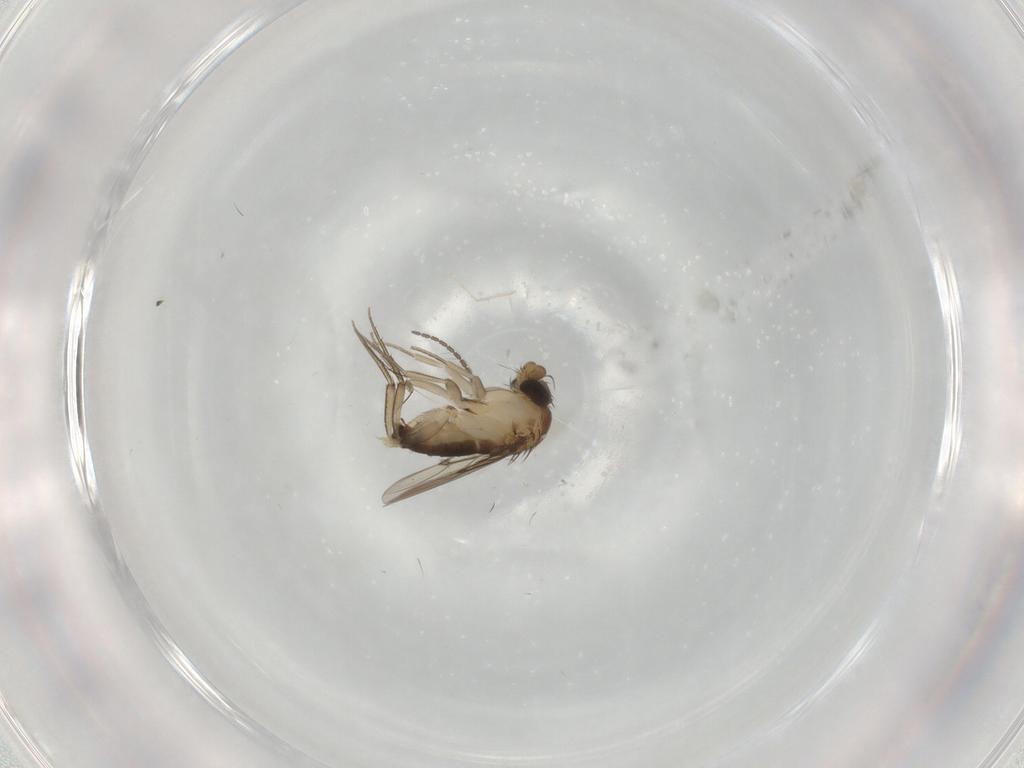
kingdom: Animalia
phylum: Arthropoda
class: Insecta
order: Diptera
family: Phoridae
